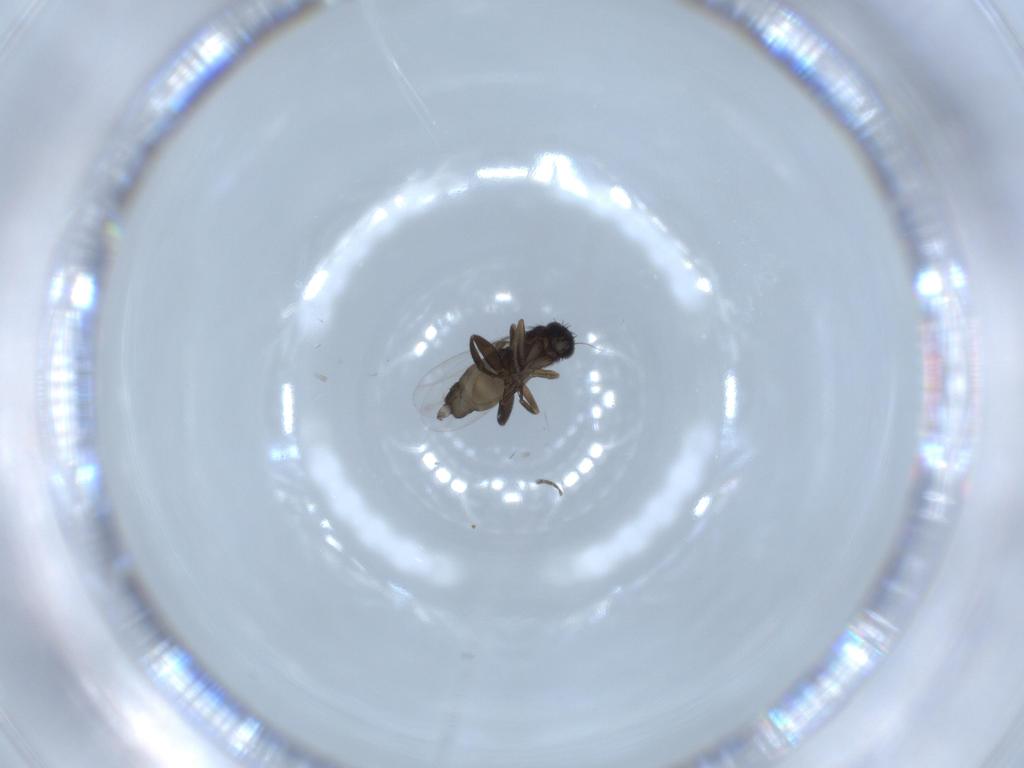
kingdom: Animalia
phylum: Arthropoda
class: Insecta
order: Diptera
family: Phoridae
